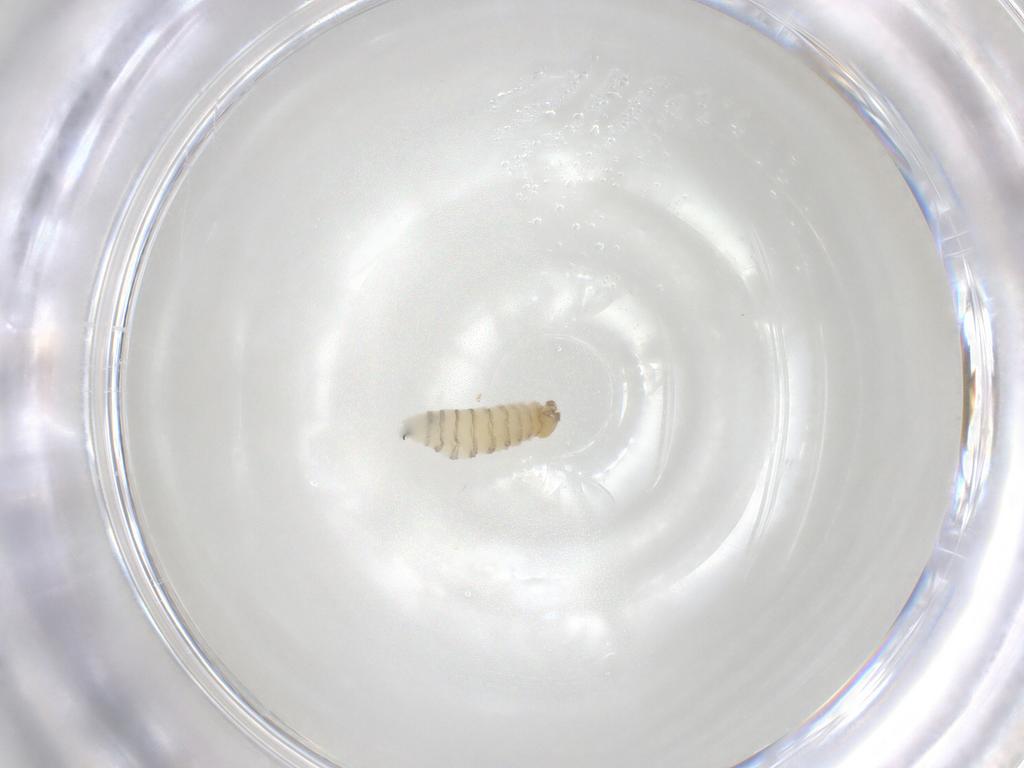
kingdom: Animalia
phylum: Arthropoda
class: Insecta
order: Diptera
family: Sarcophagidae
